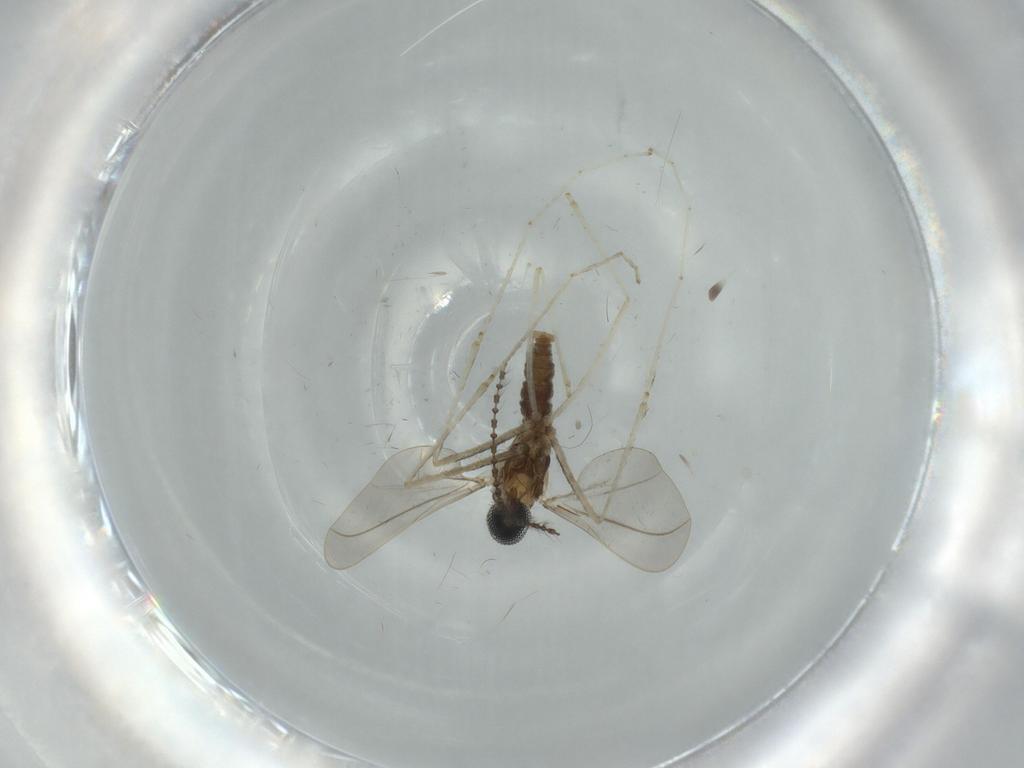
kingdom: Animalia
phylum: Arthropoda
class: Insecta
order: Diptera
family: Cecidomyiidae
